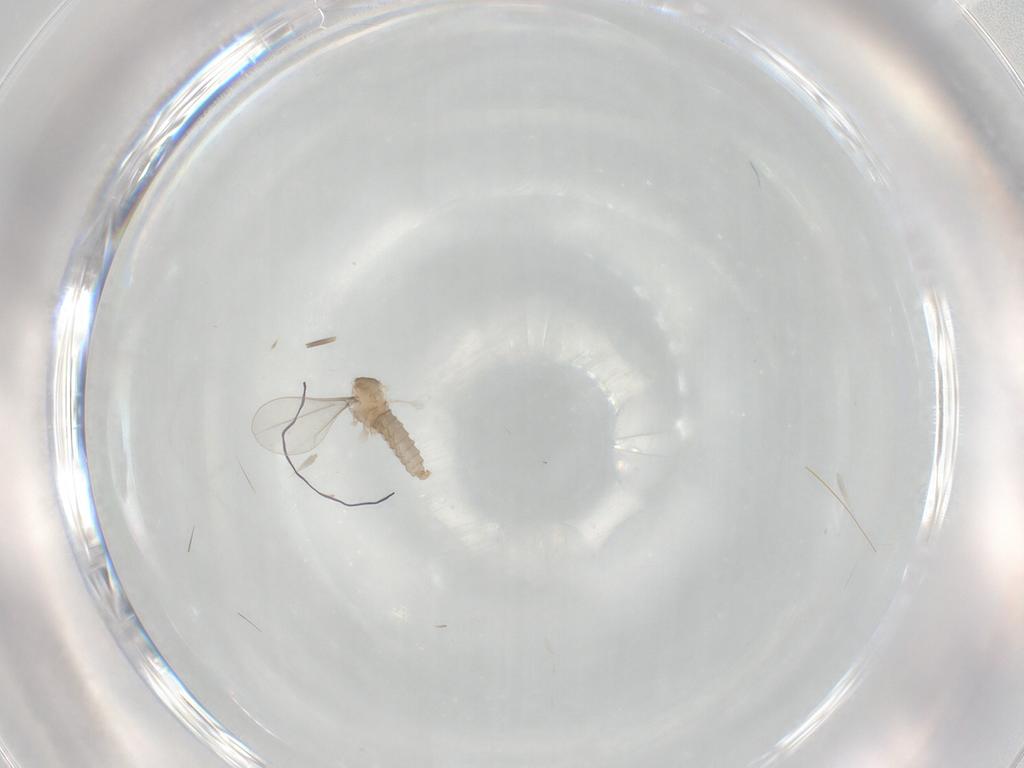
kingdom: Animalia
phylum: Arthropoda
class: Insecta
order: Diptera
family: Cecidomyiidae
